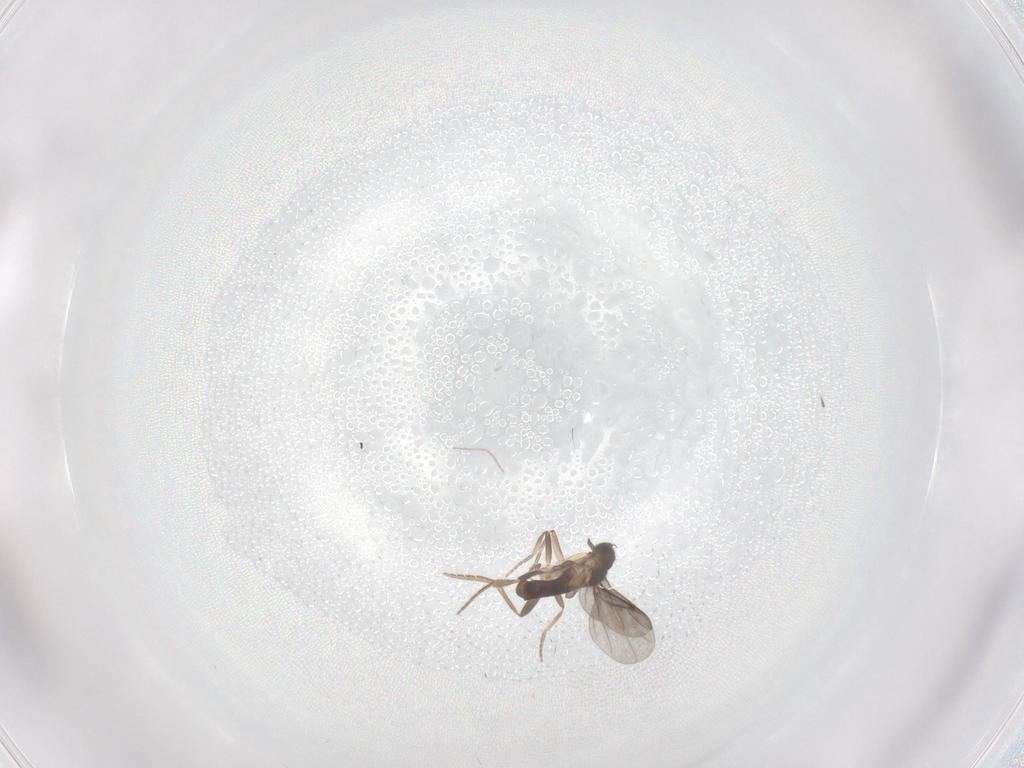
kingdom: Animalia
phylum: Arthropoda
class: Insecta
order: Diptera
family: Psychodidae
